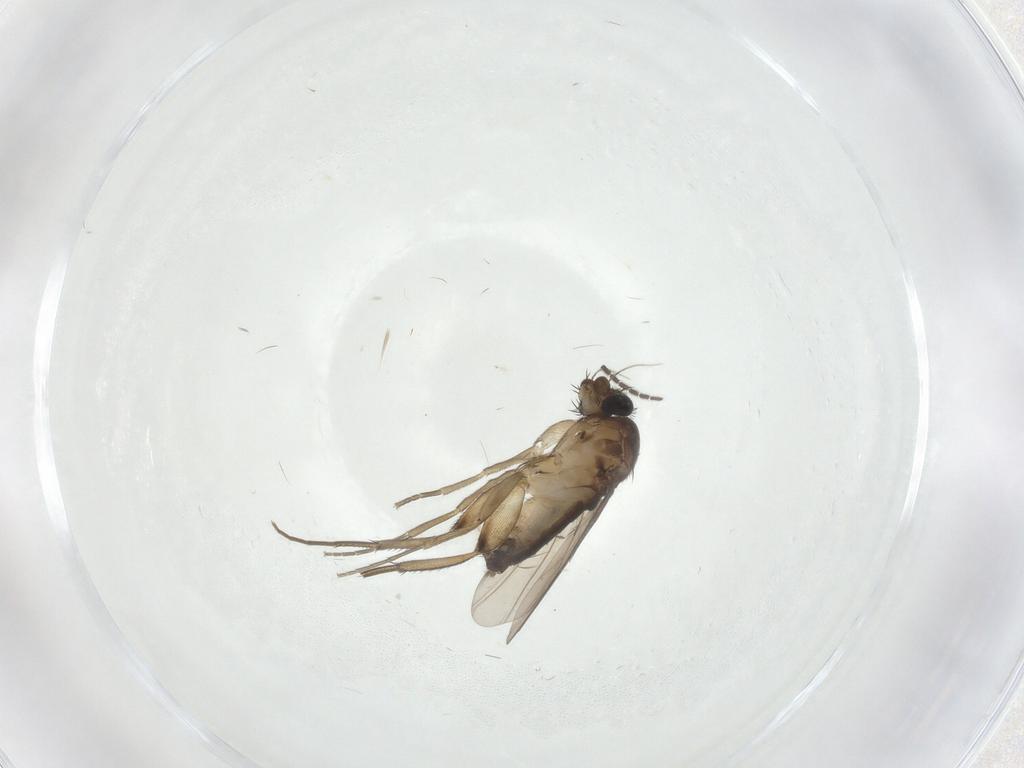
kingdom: Animalia
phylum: Arthropoda
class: Insecta
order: Diptera
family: Phoridae
